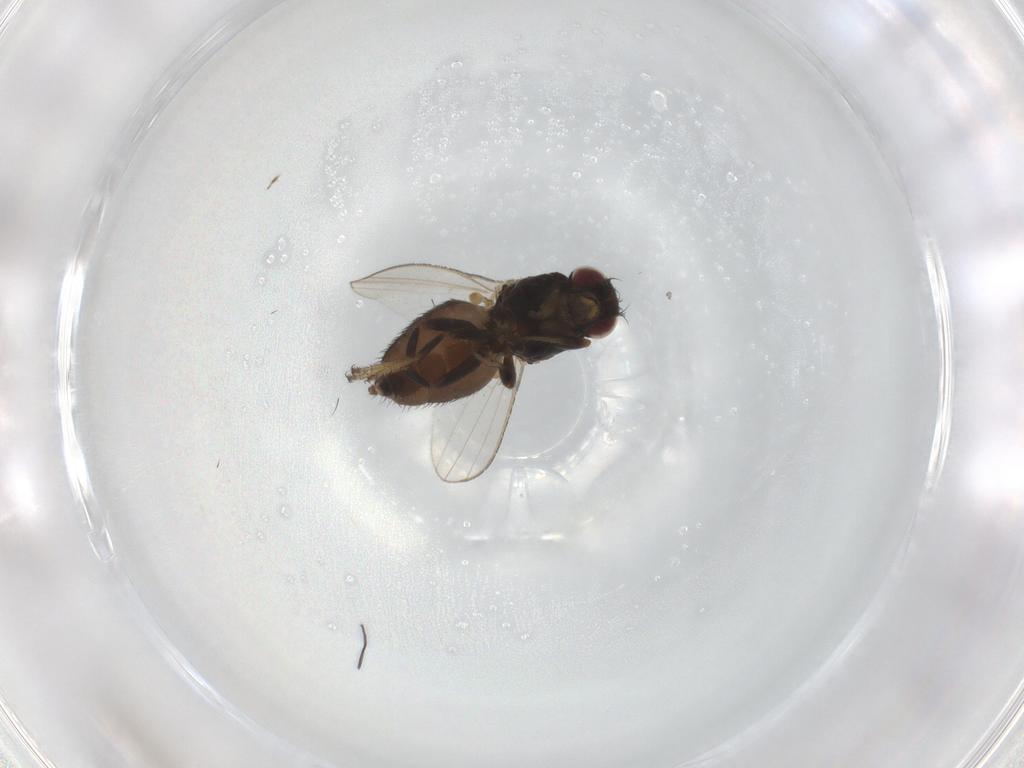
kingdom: Animalia
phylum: Arthropoda
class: Insecta
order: Diptera
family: Milichiidae
